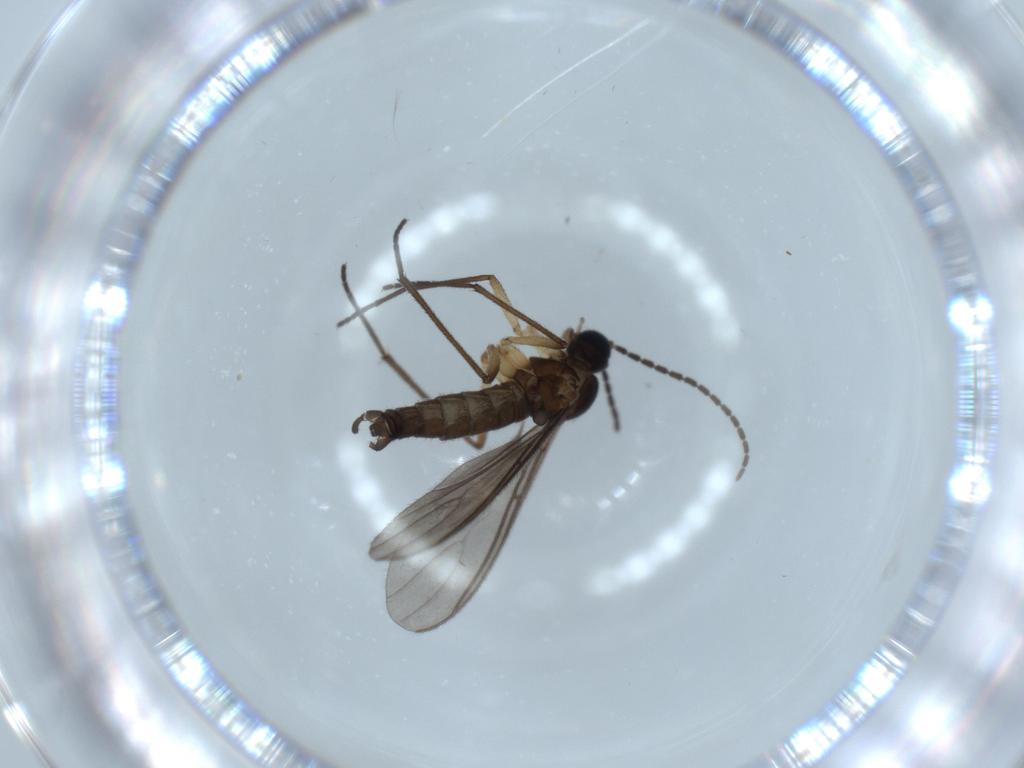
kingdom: Animalia
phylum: Arthropoda
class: Insecta
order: Diptera
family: Sciaridae
